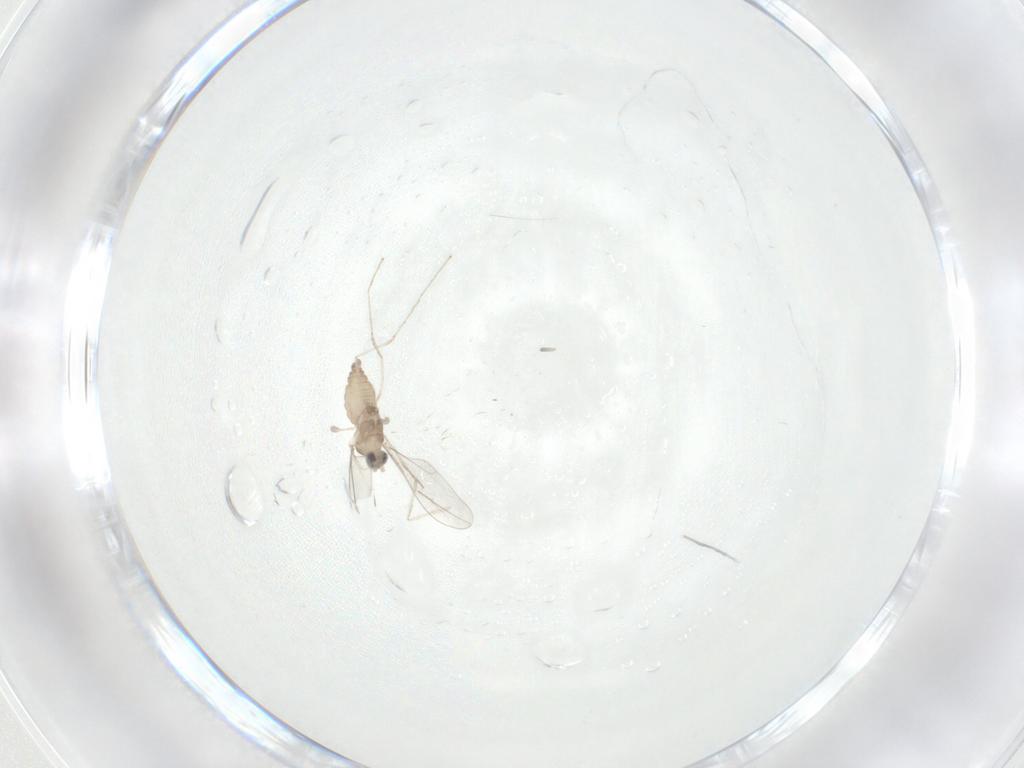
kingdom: Animalia
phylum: Arthropoda
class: Insecta
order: Diptera
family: Cecidomyiidae
